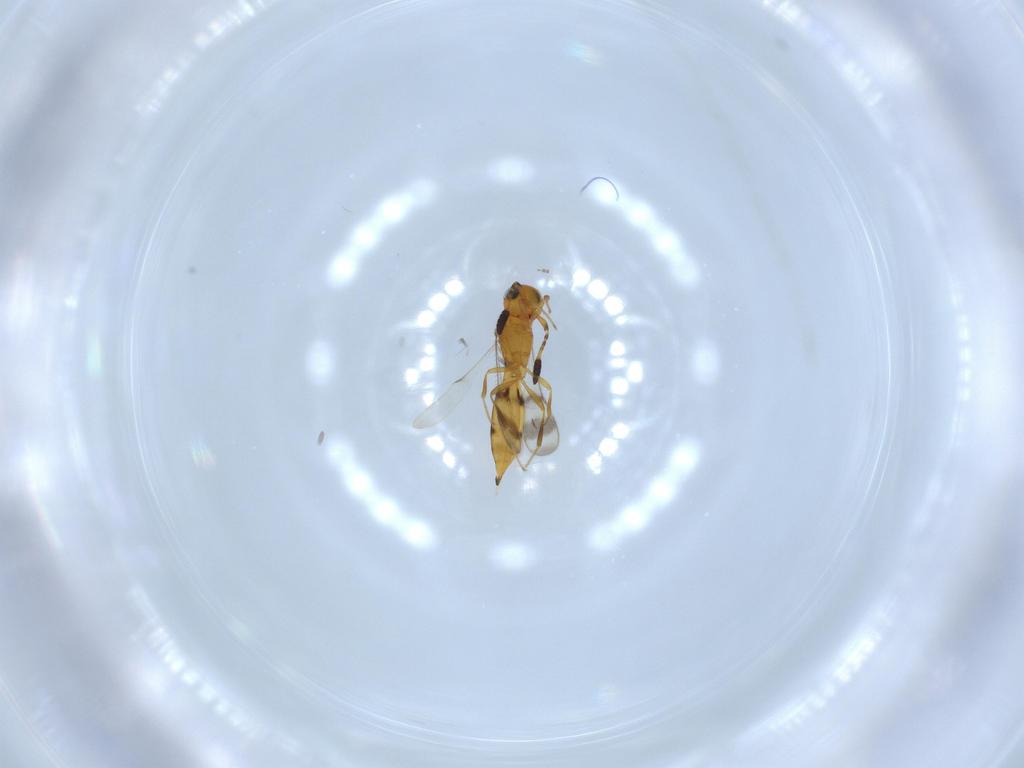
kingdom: Animalia
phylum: Arthropoda
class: Insecta
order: Hymenoptera
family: Scelionidae
